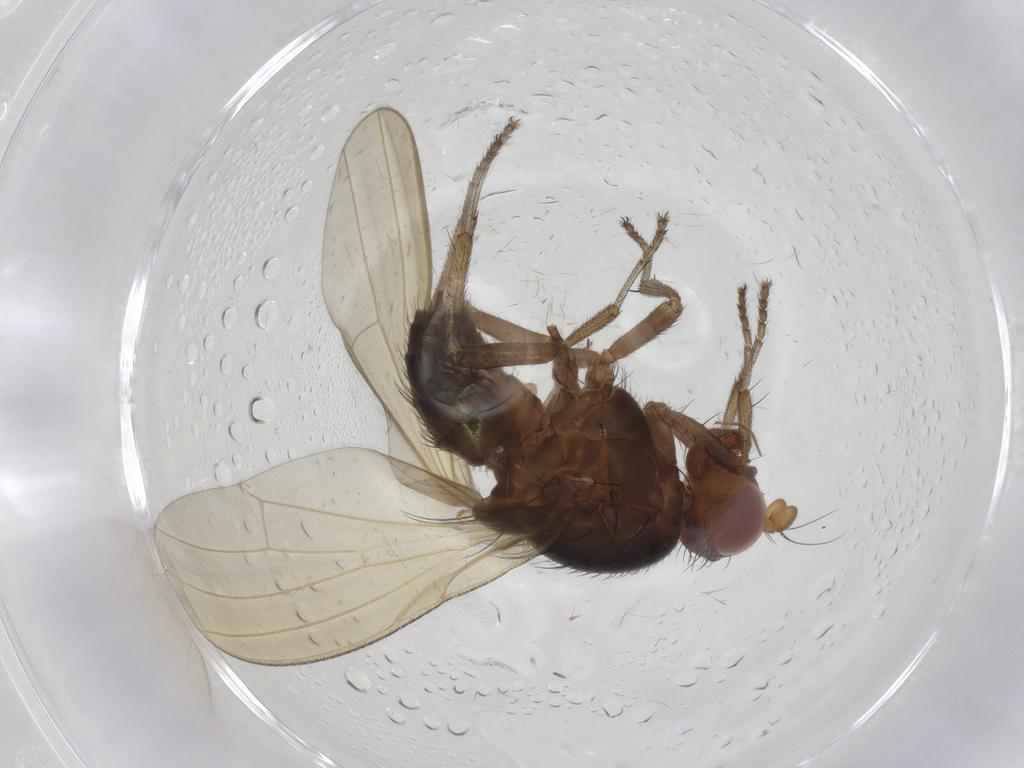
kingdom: Animalia
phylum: Arthropoda
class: Insecta
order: Diptera
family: Lauxaniidae
